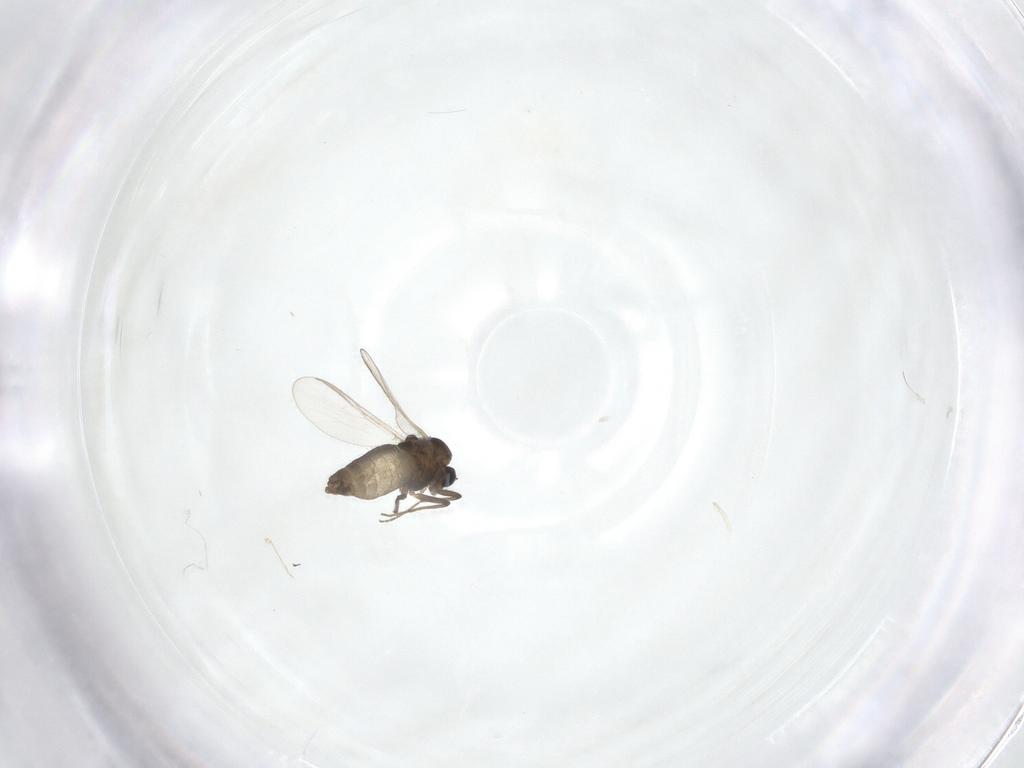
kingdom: Animalia
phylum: Arthropoda
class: Insecta
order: Diptera
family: Chironomidae
